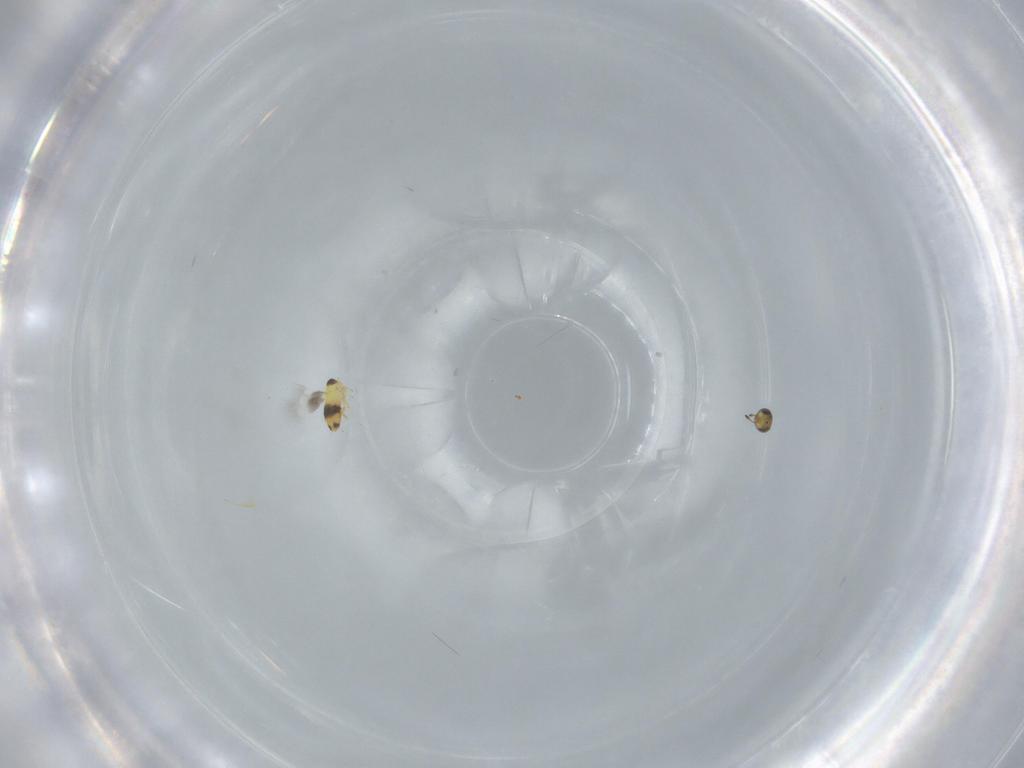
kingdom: Animalia
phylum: Arthropoda
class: Insecta
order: Hymenoptera
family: Signiphoridae
